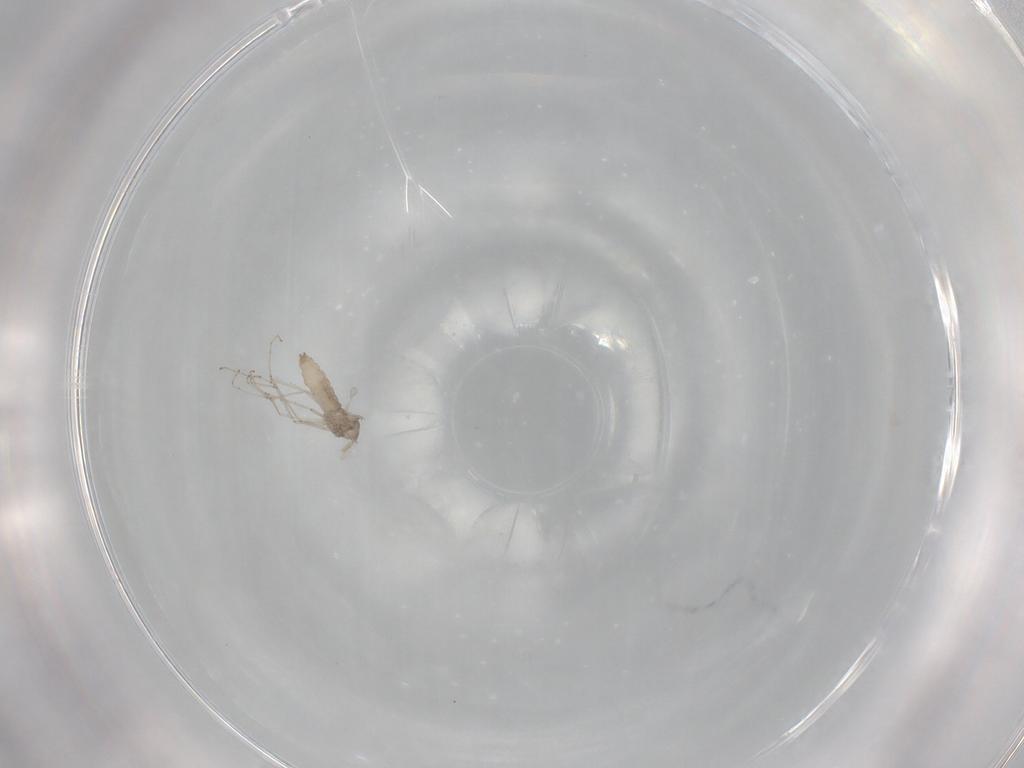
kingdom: Animalia
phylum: Arthropoda
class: Insecta
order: Diptera
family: Cecidomyiidae
